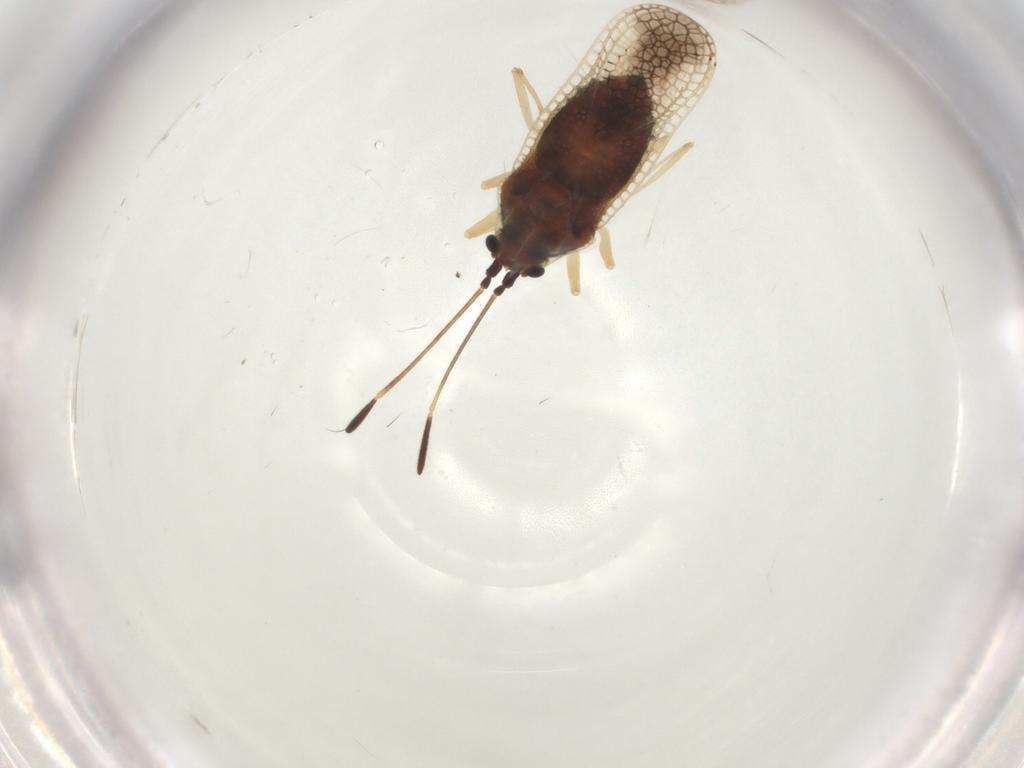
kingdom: Animalia
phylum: Arthropoda
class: Insecta
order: Hemiptera
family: Tingidae
